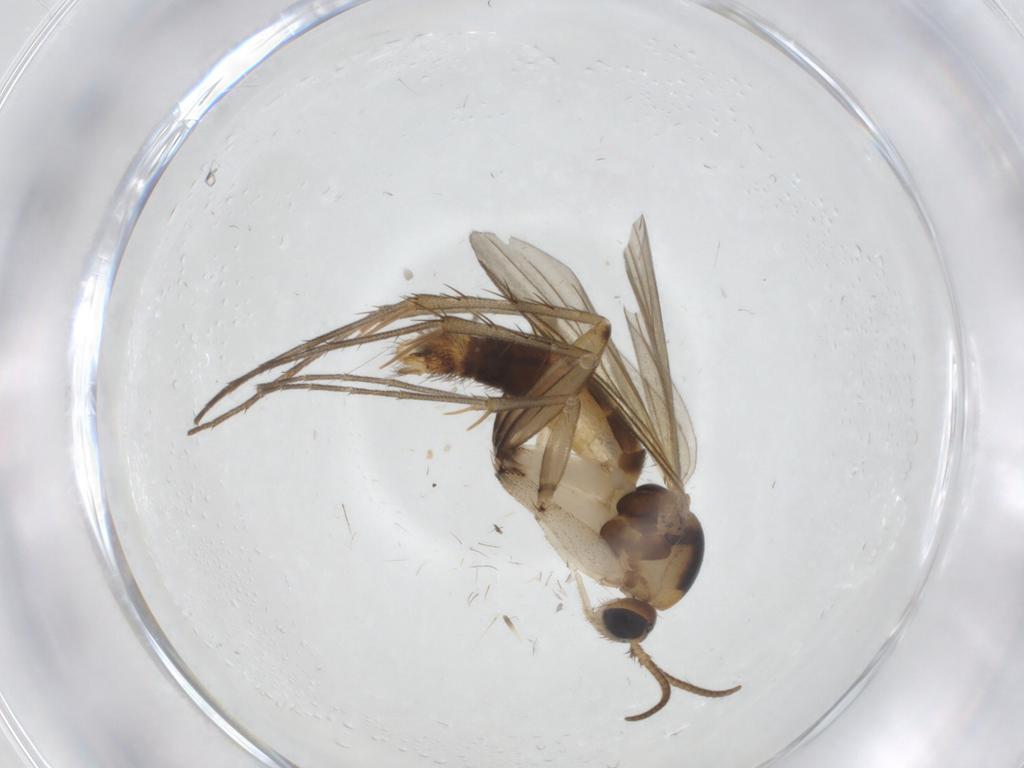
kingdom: Animalia
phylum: Arthropoda
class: Insecta
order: Diptera
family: Mycetophilidae
